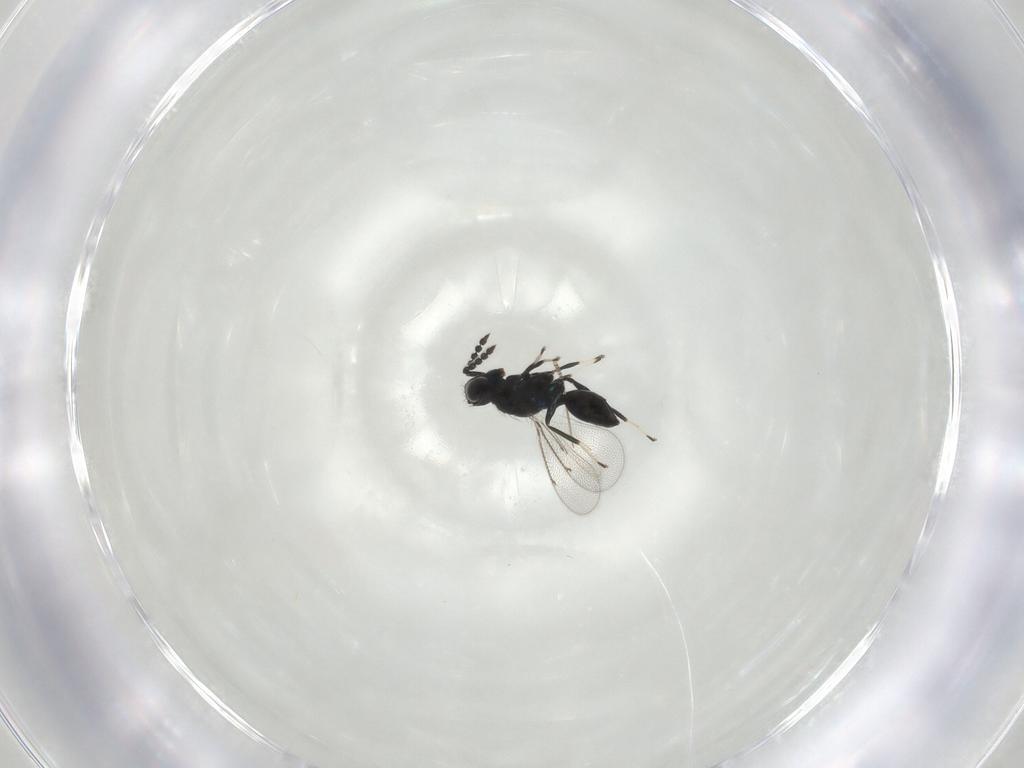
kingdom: Animalia
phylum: Arthropoda
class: Insecta
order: Hymenoptera
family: Eulophidae
